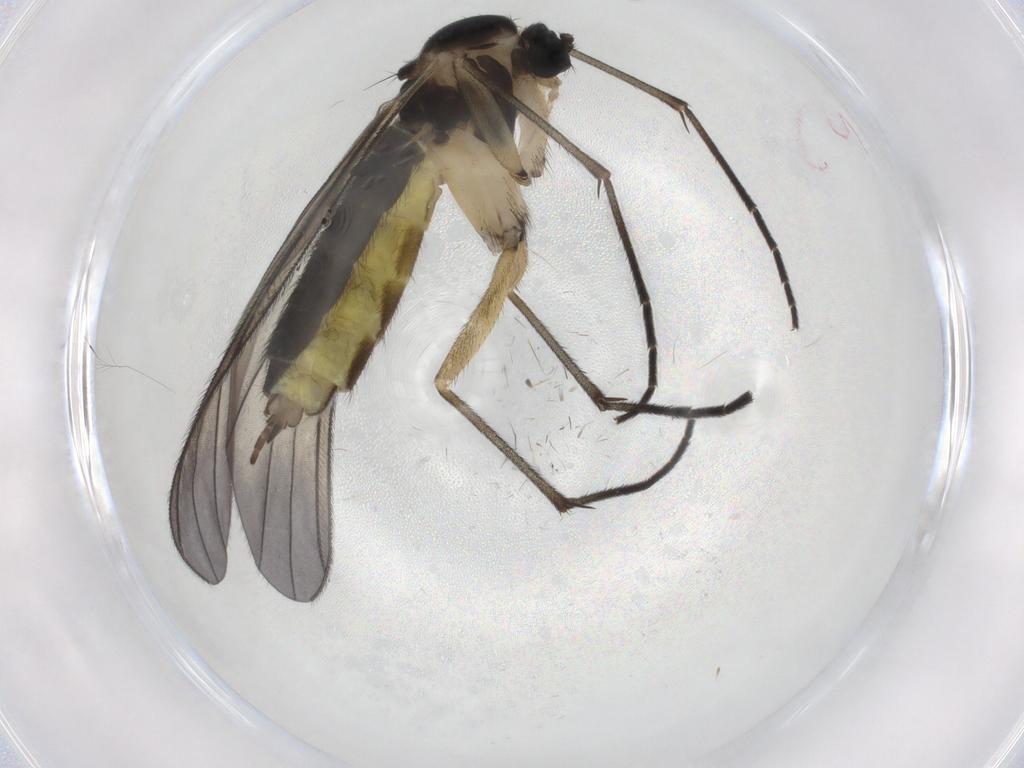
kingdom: Animalia
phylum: Arthropoda
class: Insecta
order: Diptera
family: Sciaridae
